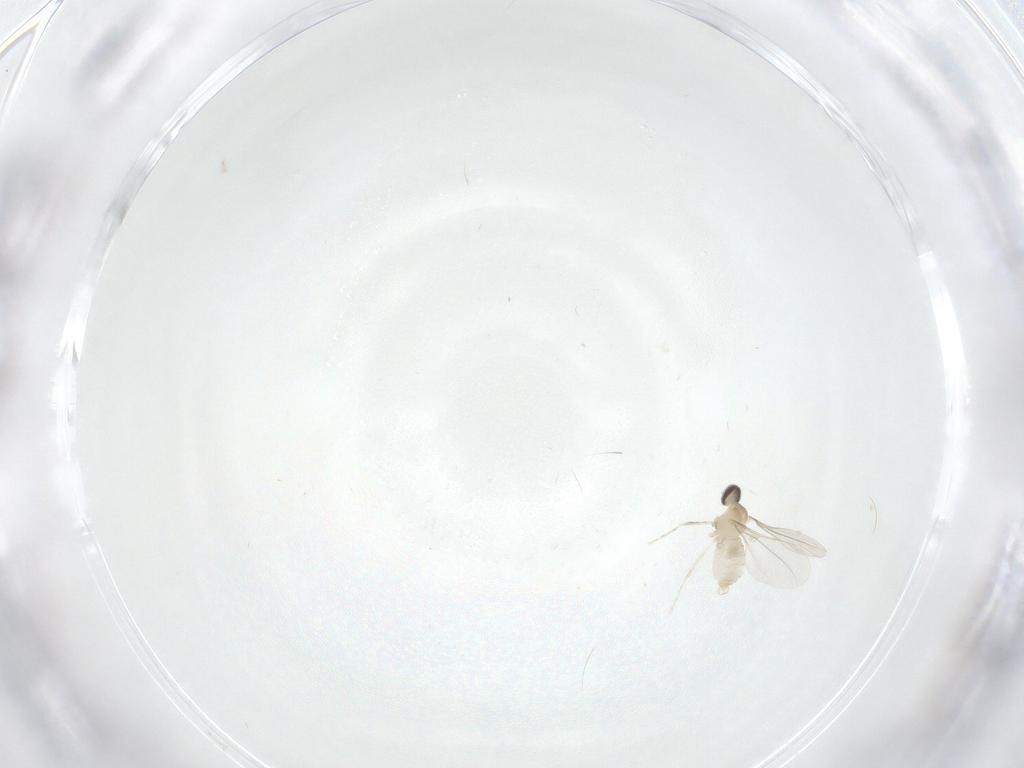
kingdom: Animalia
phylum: Arthropoda
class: Insecta
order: Diptera
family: Cecidomyiidae
